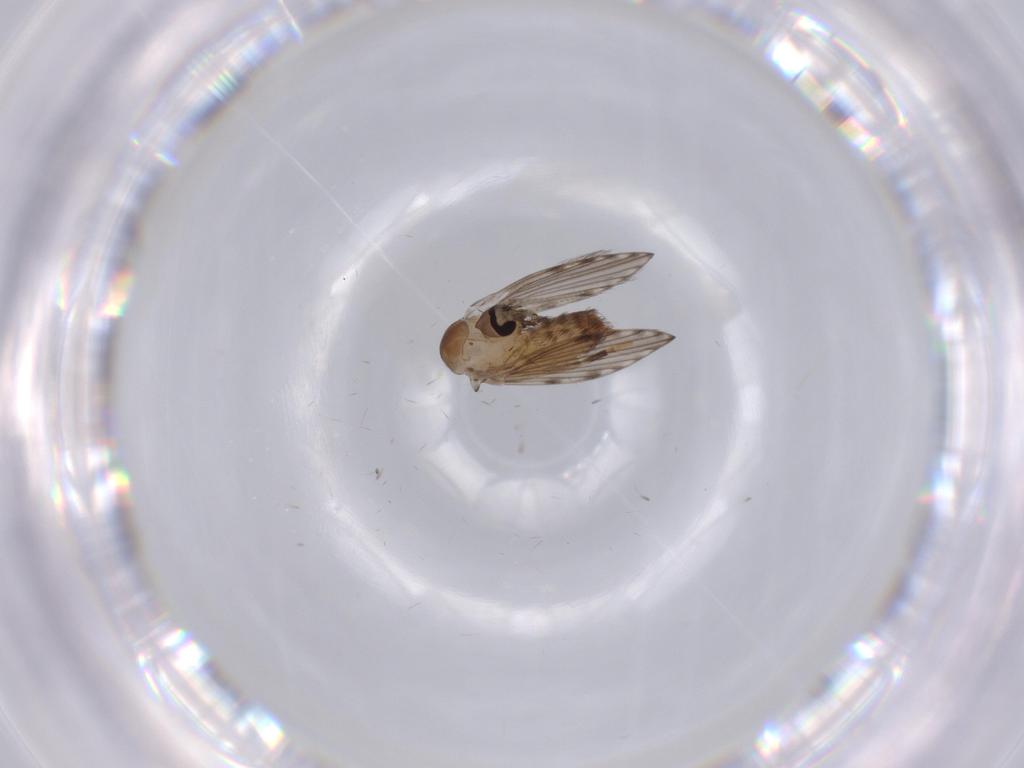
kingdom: Animalia
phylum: Arthropoda
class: Insecta
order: Diptera
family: Psychodidae
